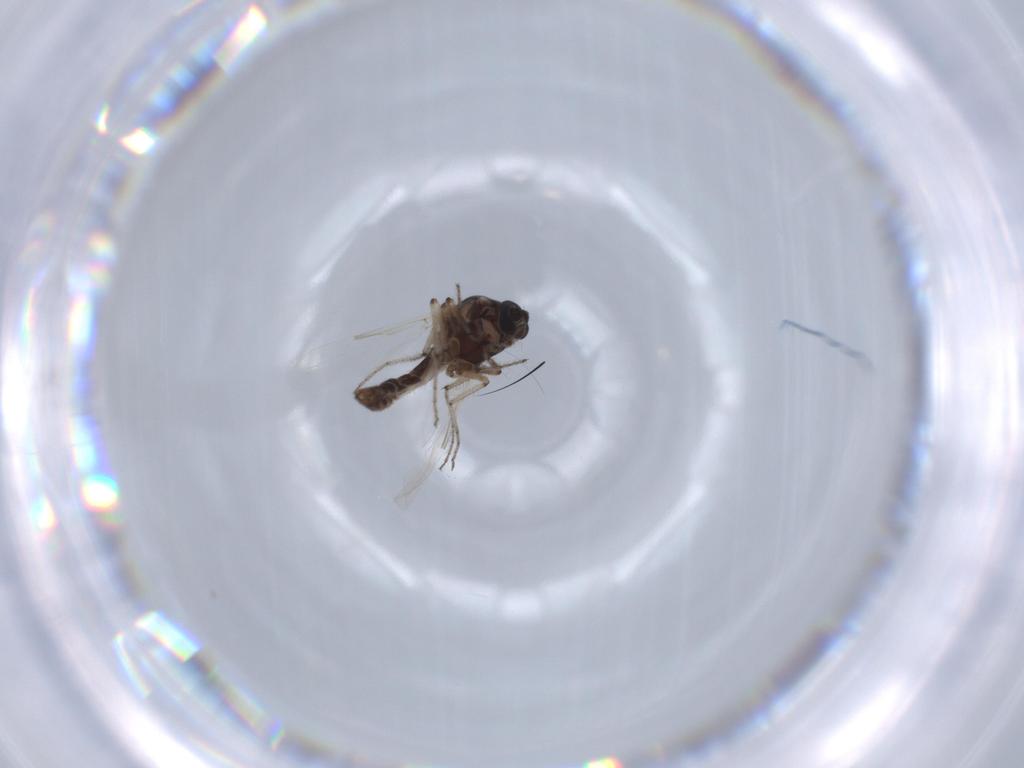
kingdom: Animalia
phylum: Arthropoda
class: Insecta
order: Diptera
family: Ceratopogonidae
